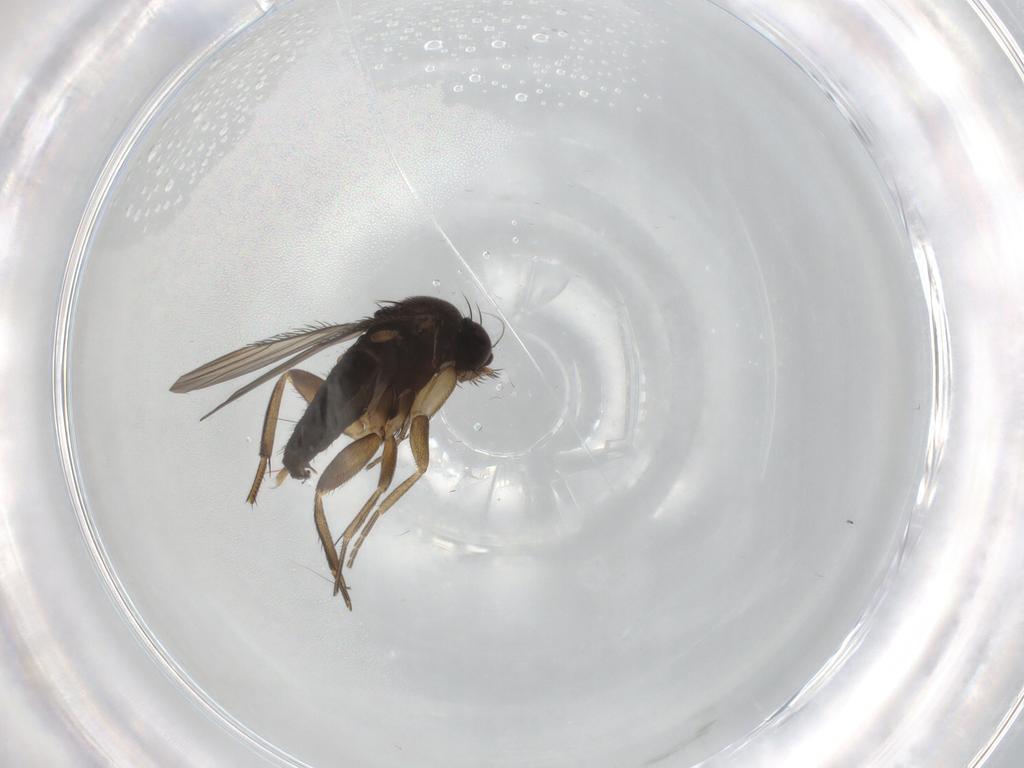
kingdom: Animalia
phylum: Arthropoda
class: Insecta
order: Diptera
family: Phoridae
